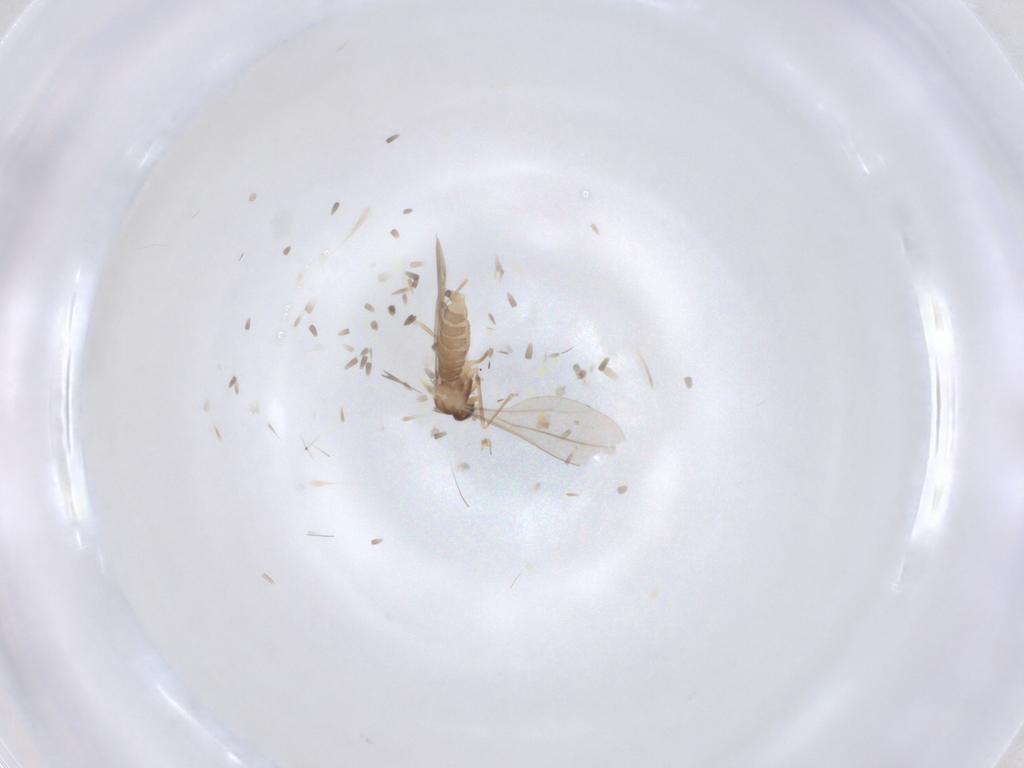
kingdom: Animalia
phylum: Arthropoda
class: Insecta
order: Diptera
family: Cecidomyiidae
